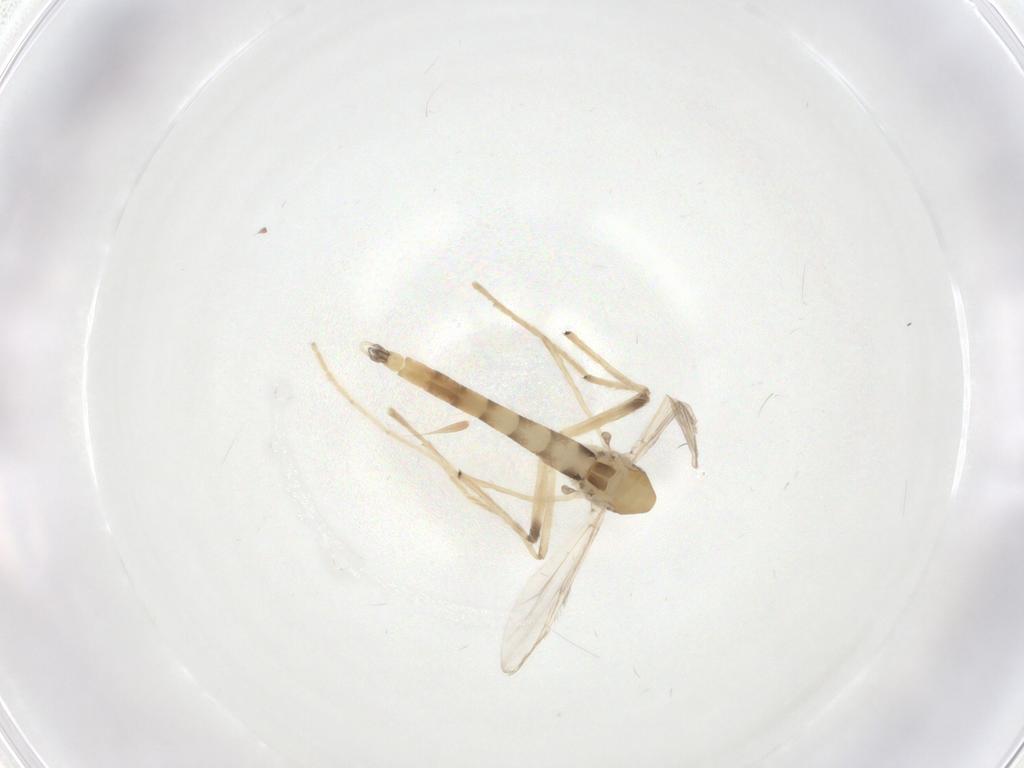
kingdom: Animalia
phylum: Arthropoda
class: Insecta
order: Diptera
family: Chironomidae
